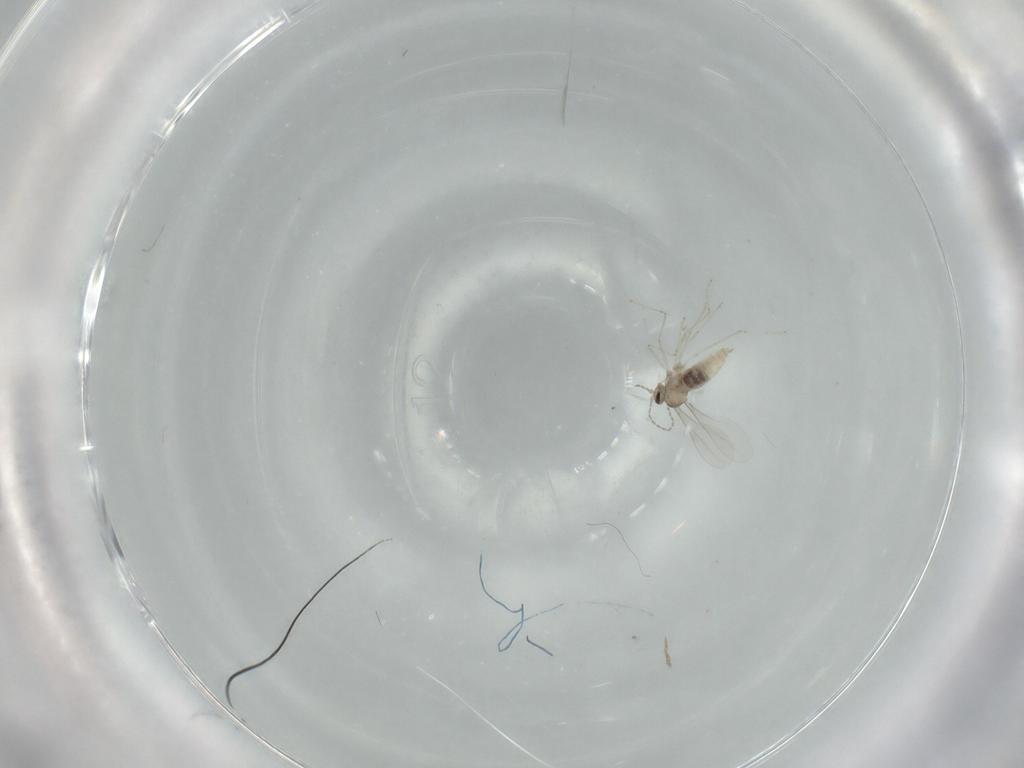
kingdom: Animalia
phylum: Arthropoda
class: Insecta
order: Diptera
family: Cecidomyiidae
